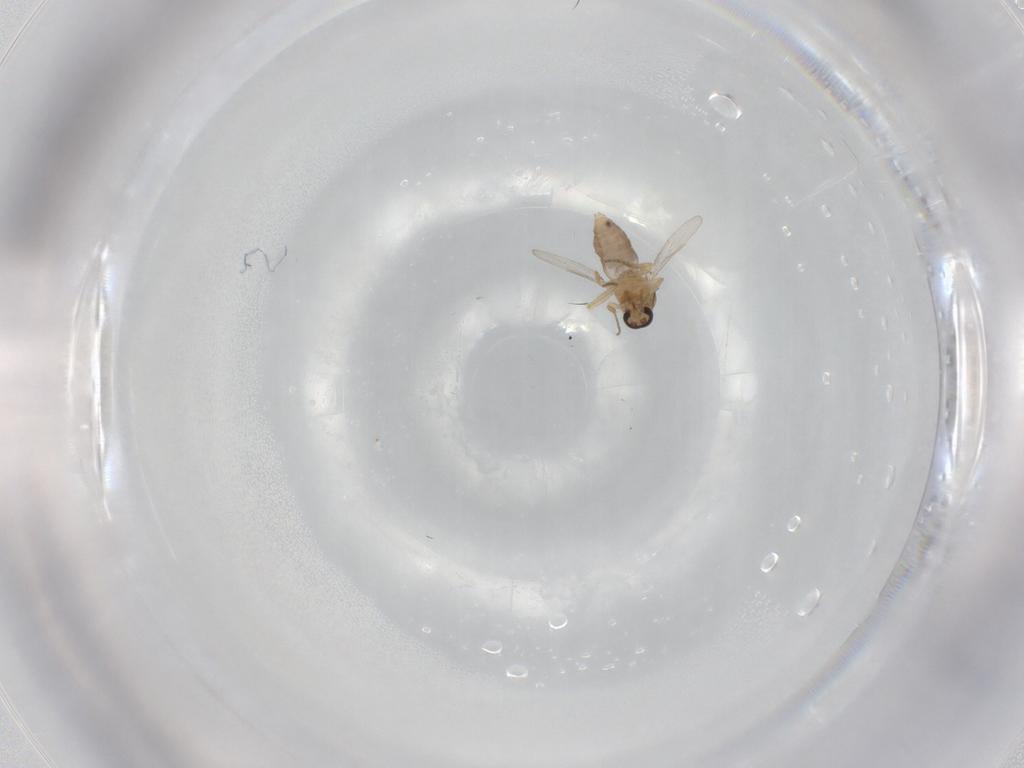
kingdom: Animalia
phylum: Arthropoda
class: Insecta
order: Diptera
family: Ceratopogonidae
